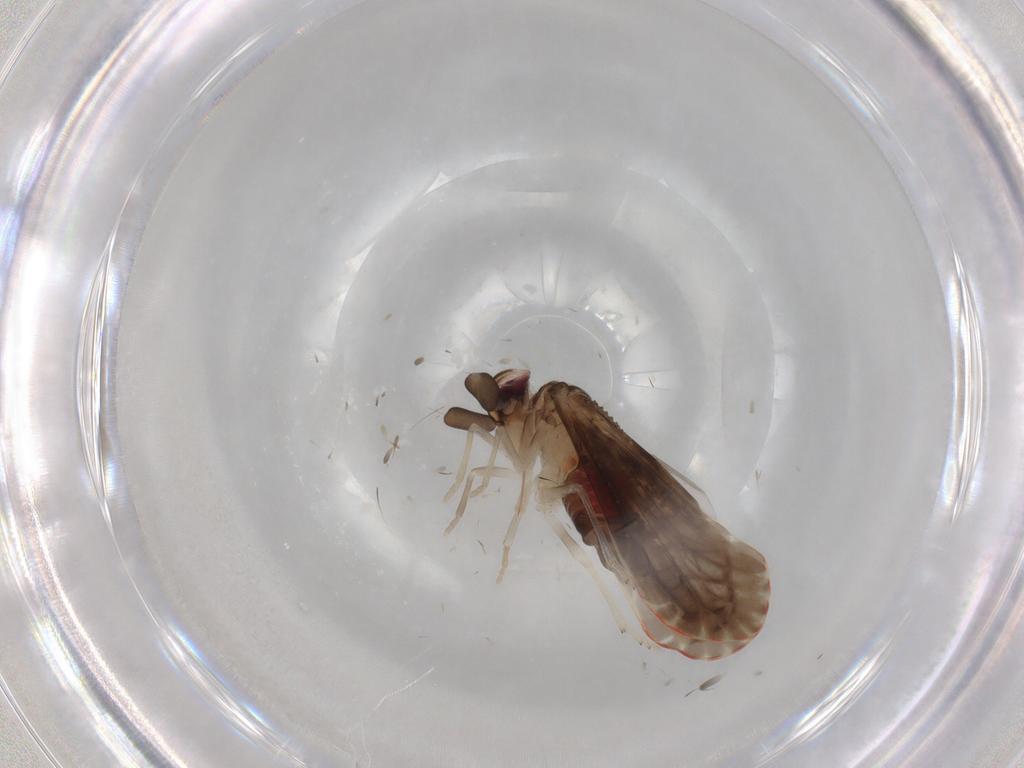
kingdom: Animalia
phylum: Arthropoda
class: Insecta
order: Hemiptera
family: Derbidae
